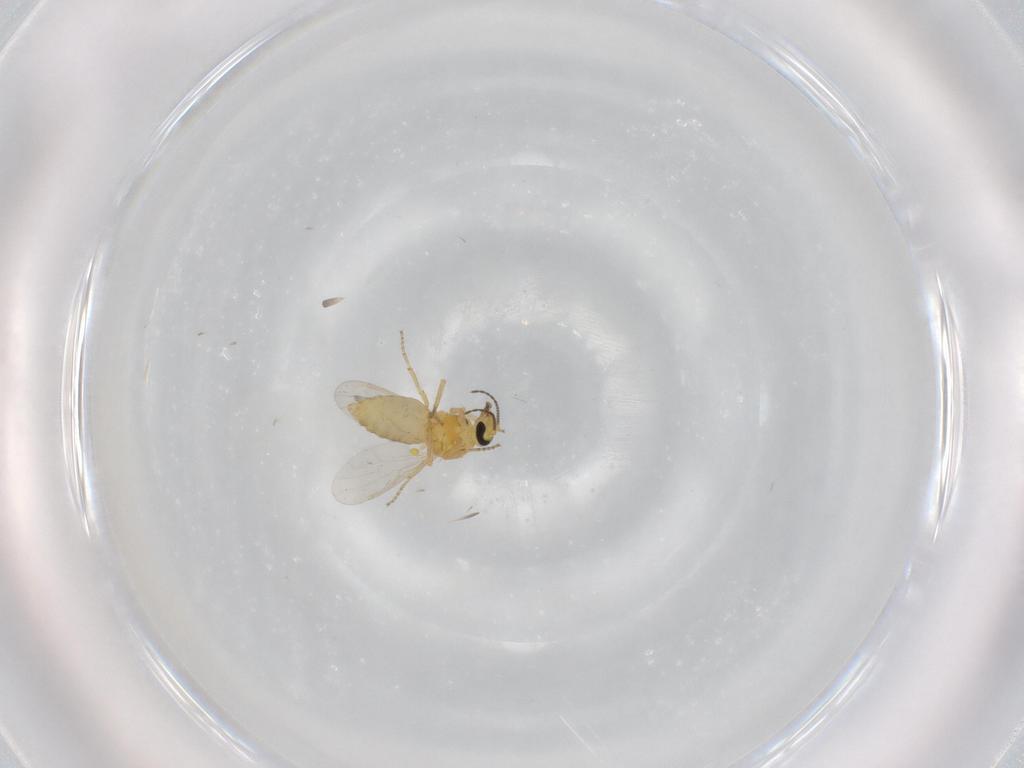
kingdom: Animalia
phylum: Arthropoda
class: Insecta
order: Diptera
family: Ceratopogonidae
